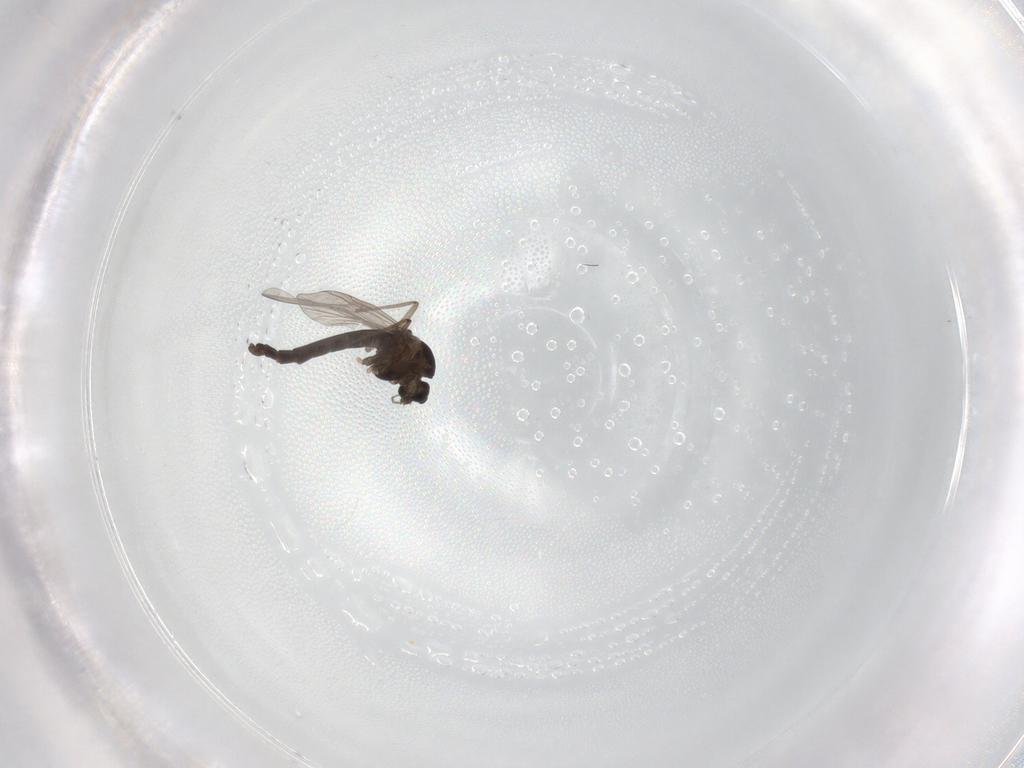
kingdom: Animalia
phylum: Arthropoda
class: Insecta
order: Diptera
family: Chironomidae
